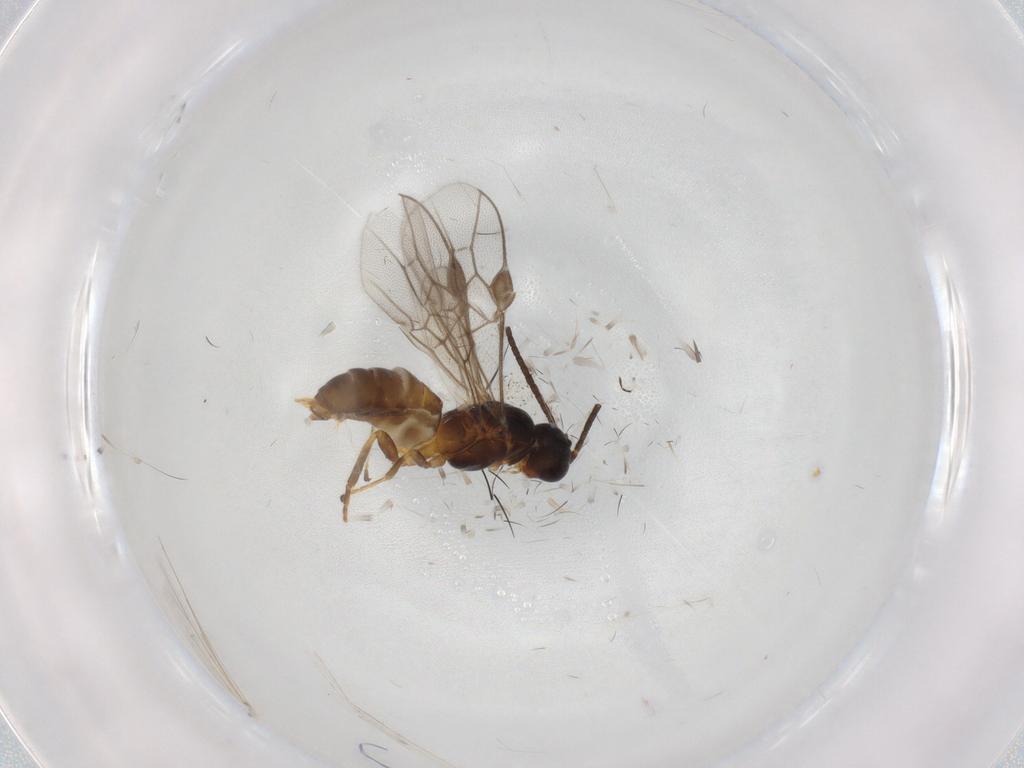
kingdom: Animalia
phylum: Arthropoda
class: Insecta
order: Hymenoptera
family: Braconidae
